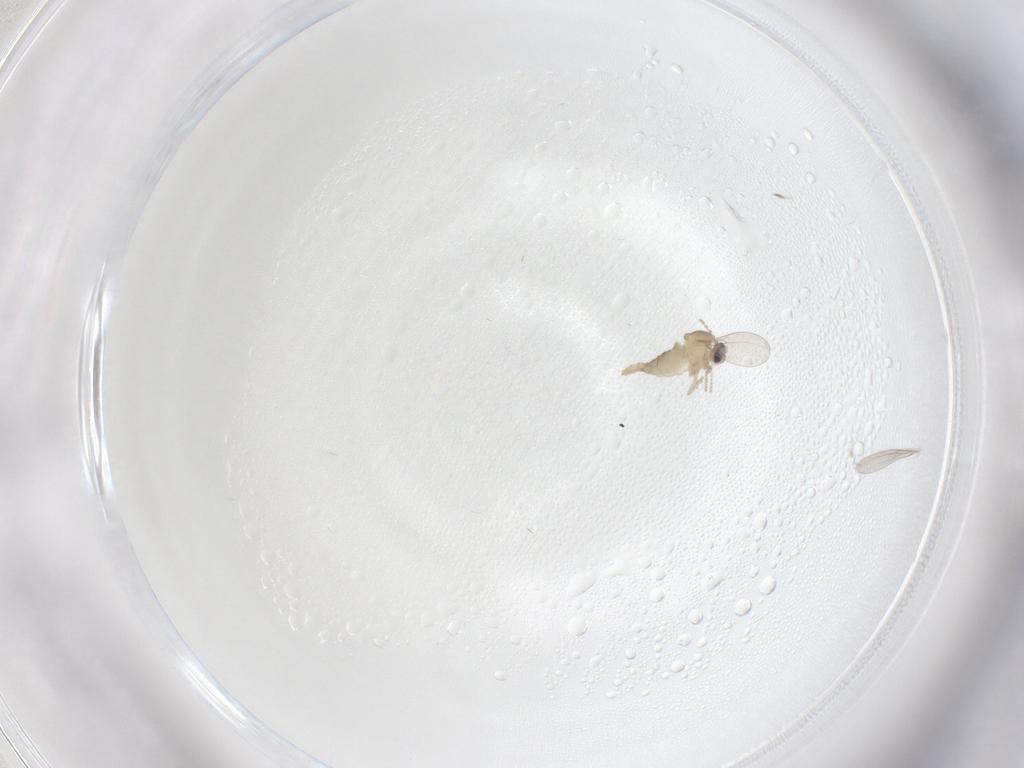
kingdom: Animalia
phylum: Arthropoda
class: Insecta
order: Diptera
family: Cecidomyiidae
